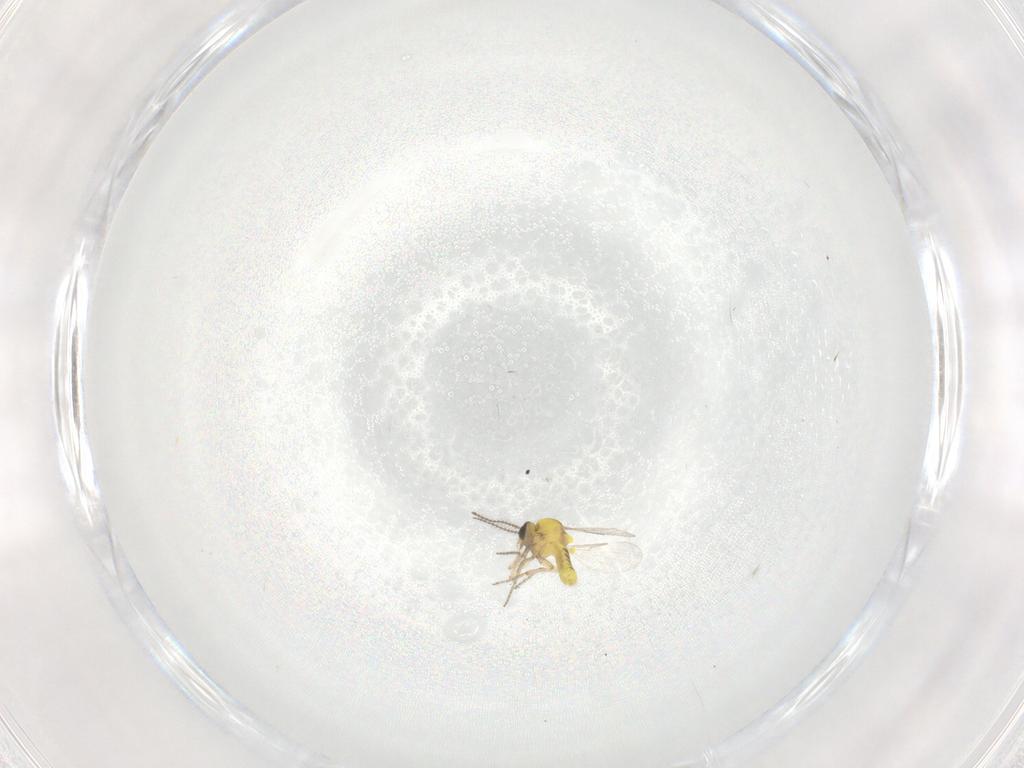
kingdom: Animalia
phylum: Arthropoda
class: Insecta
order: Diptera
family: Ceratopogonidae
